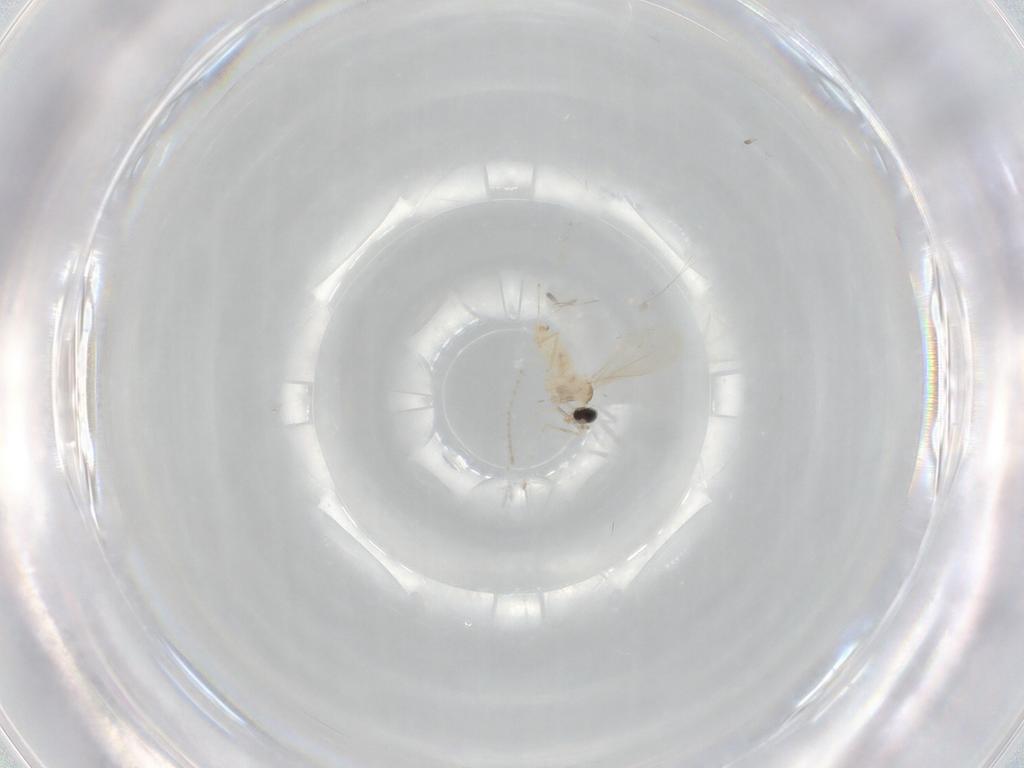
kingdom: Animalia
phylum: Arthropoda
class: Insecta
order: Diptera
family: Cecidomyiidae
